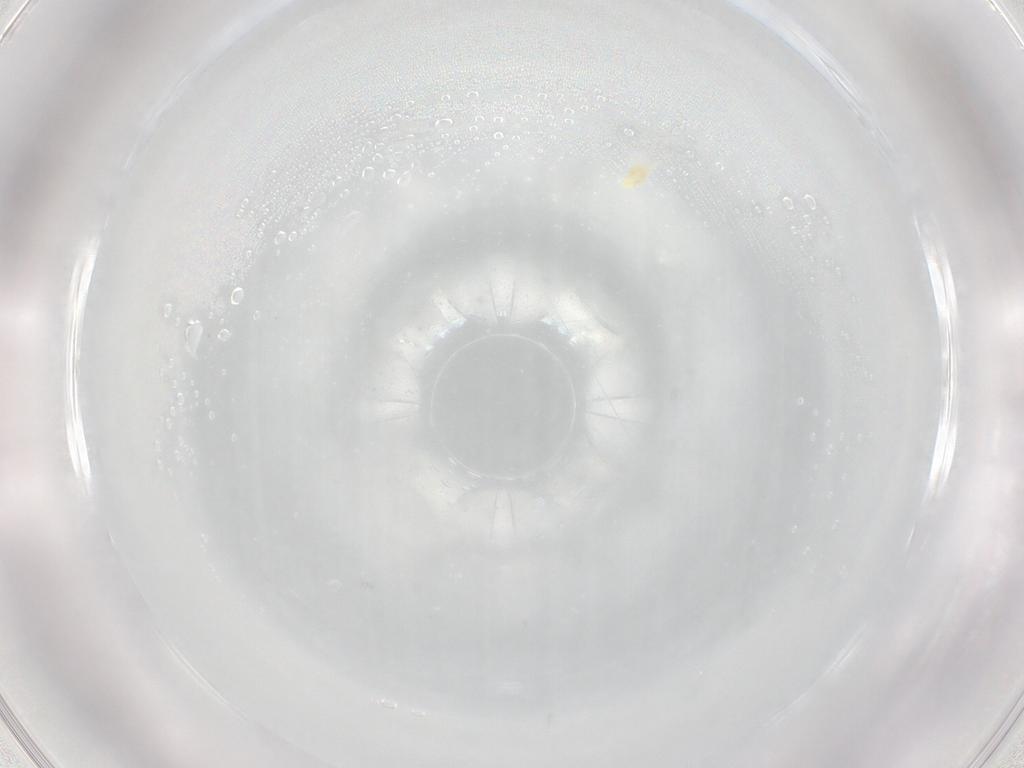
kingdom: Animalia
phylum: Arthropoda
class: Arachnida
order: Trombidiformes
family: Eupodidae
